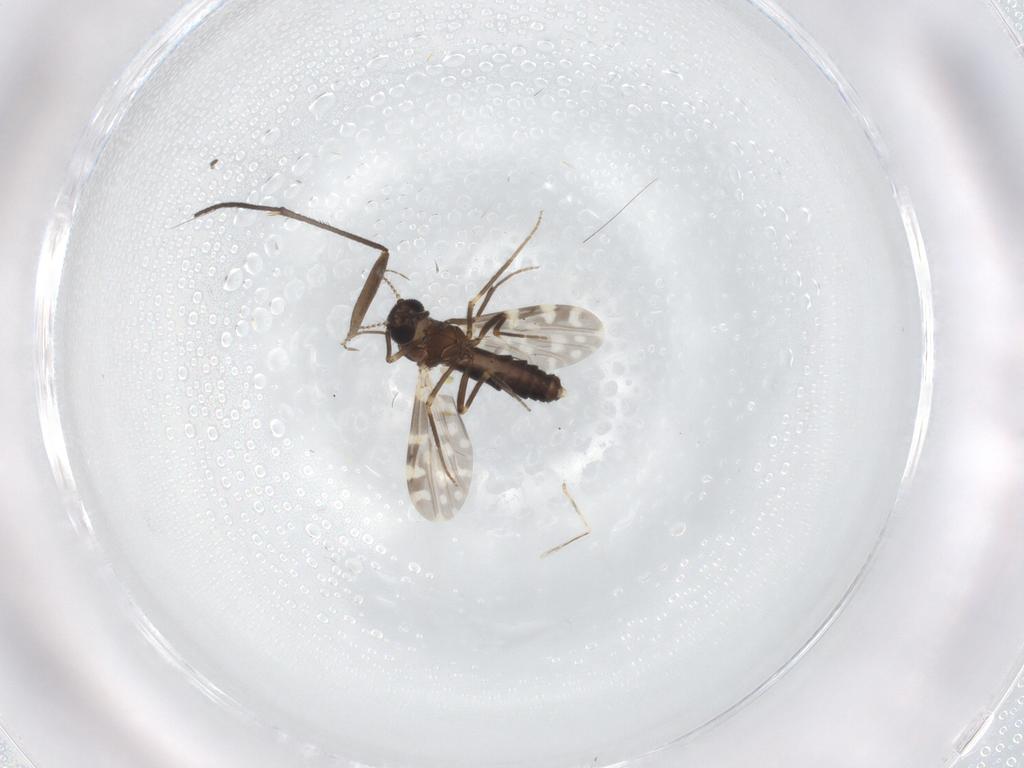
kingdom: Animalia
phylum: Arthropoda
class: Insecta
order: Diptera
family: Ceratopogonidae
